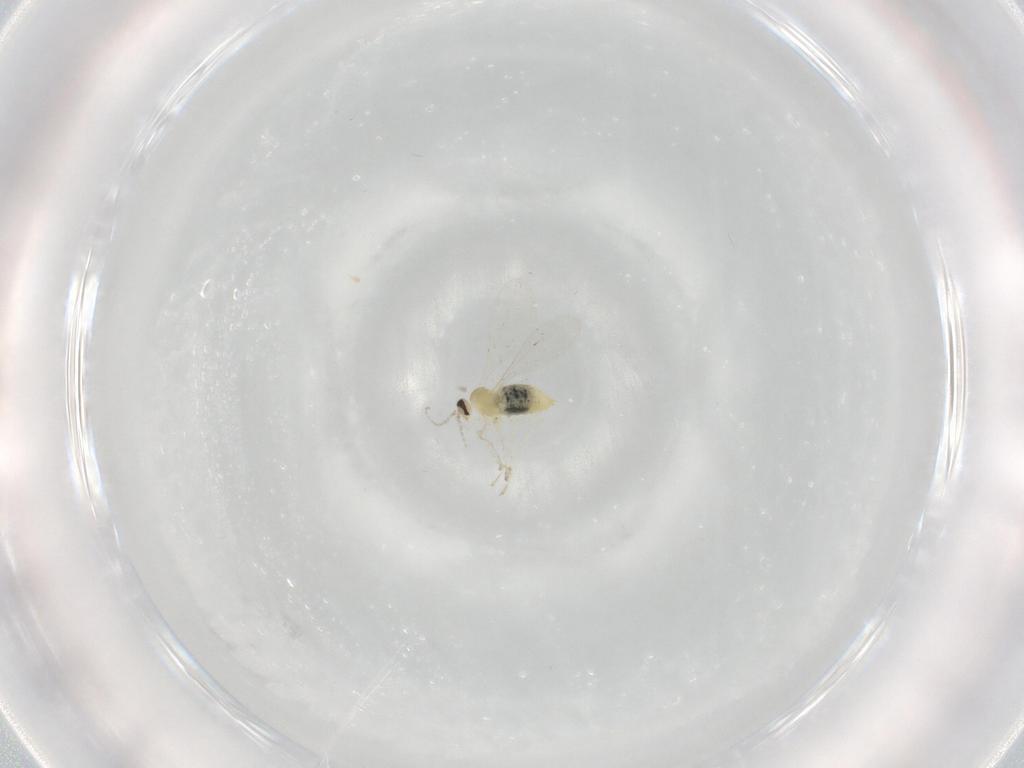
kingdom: Animalia
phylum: Arthropoda
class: Insecta
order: Diptera
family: Cecidomyiidae
